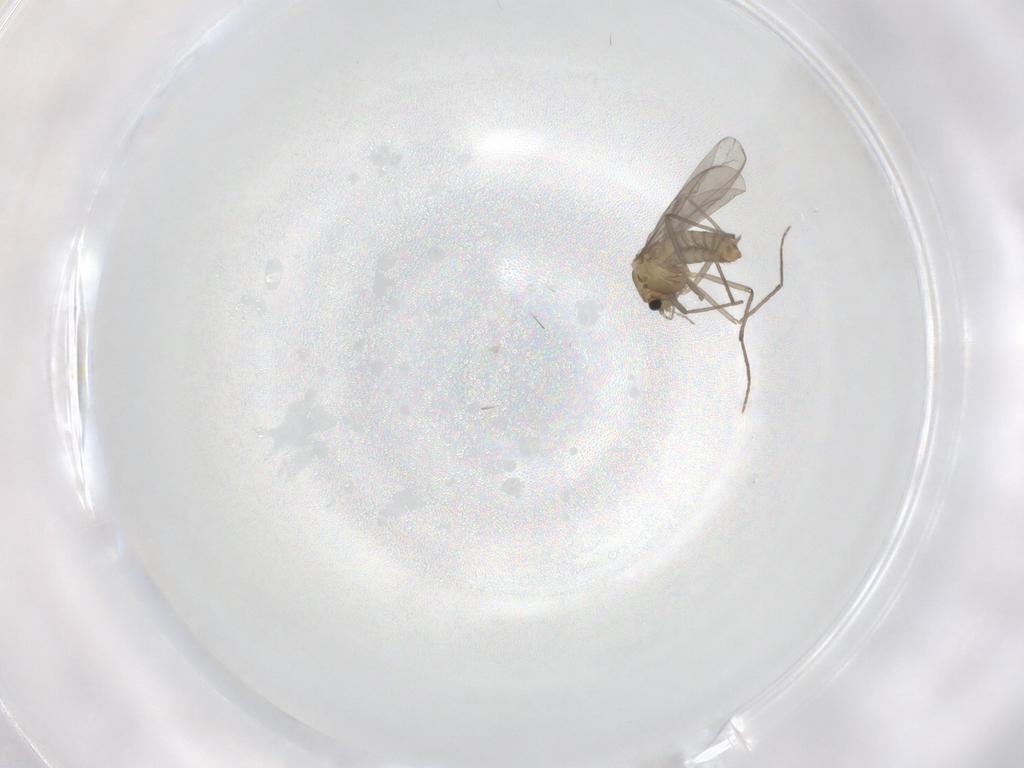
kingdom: Animalia
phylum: Arthropoda
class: Insecta
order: Diptera
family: Chironomidae
